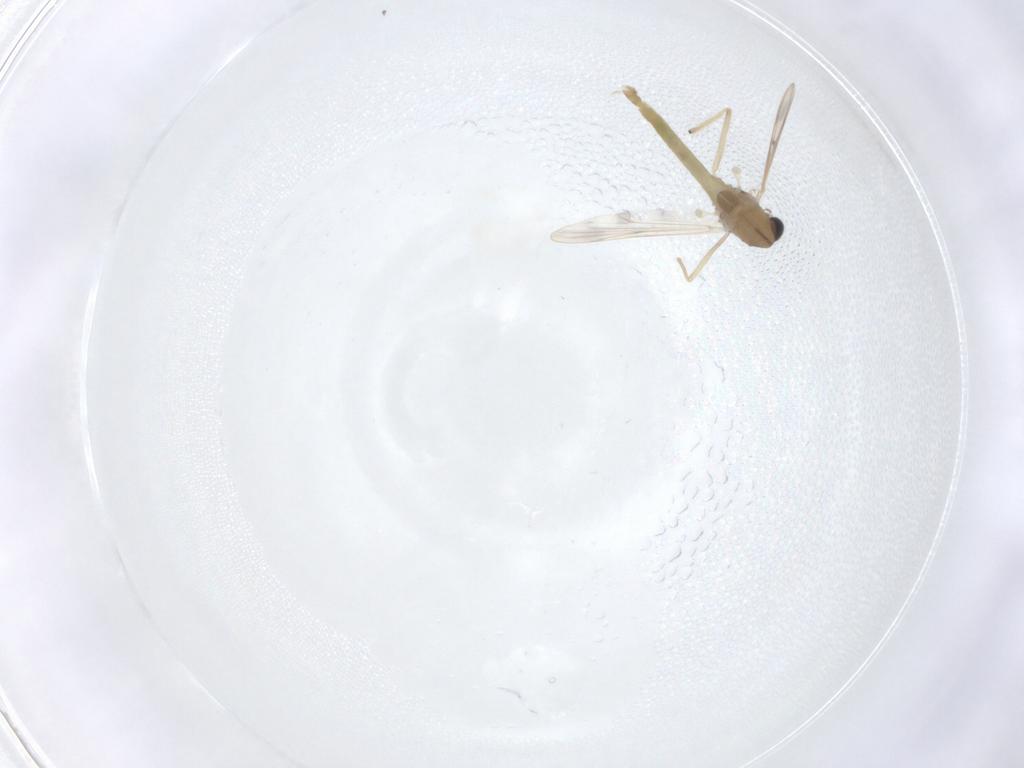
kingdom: Animalia
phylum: Arthropoda
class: Insecta
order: Diptera
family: Chironomidae
